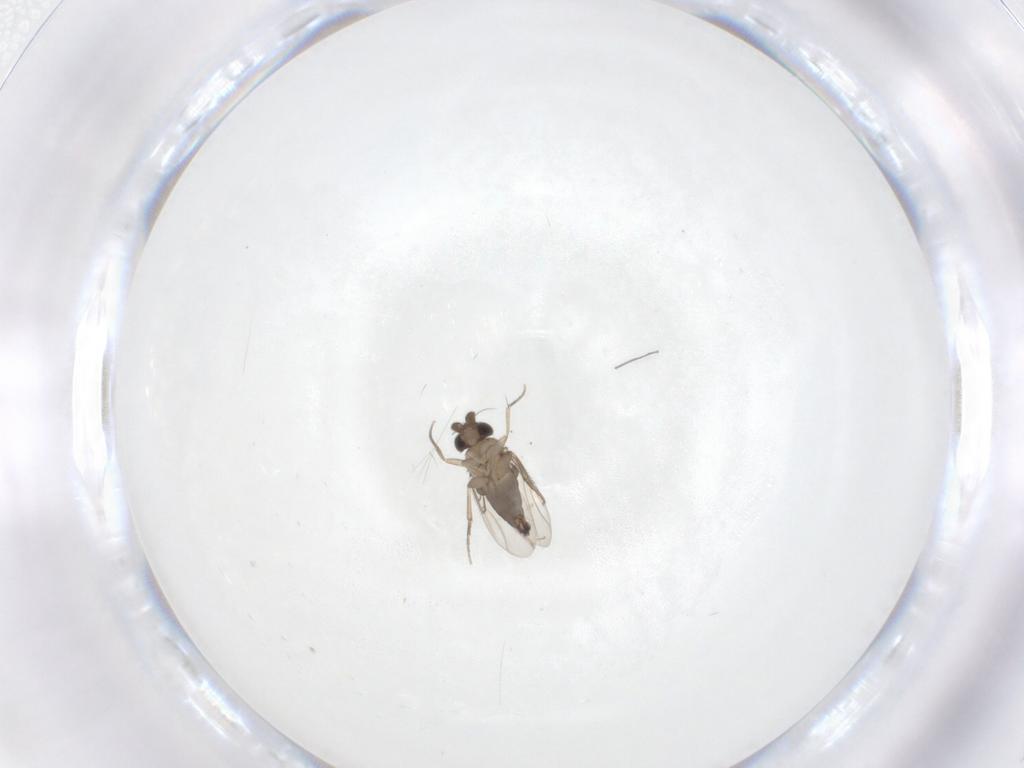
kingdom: Animalia
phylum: Arthropoda
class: Insecta
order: Diptera
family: Phoridae
